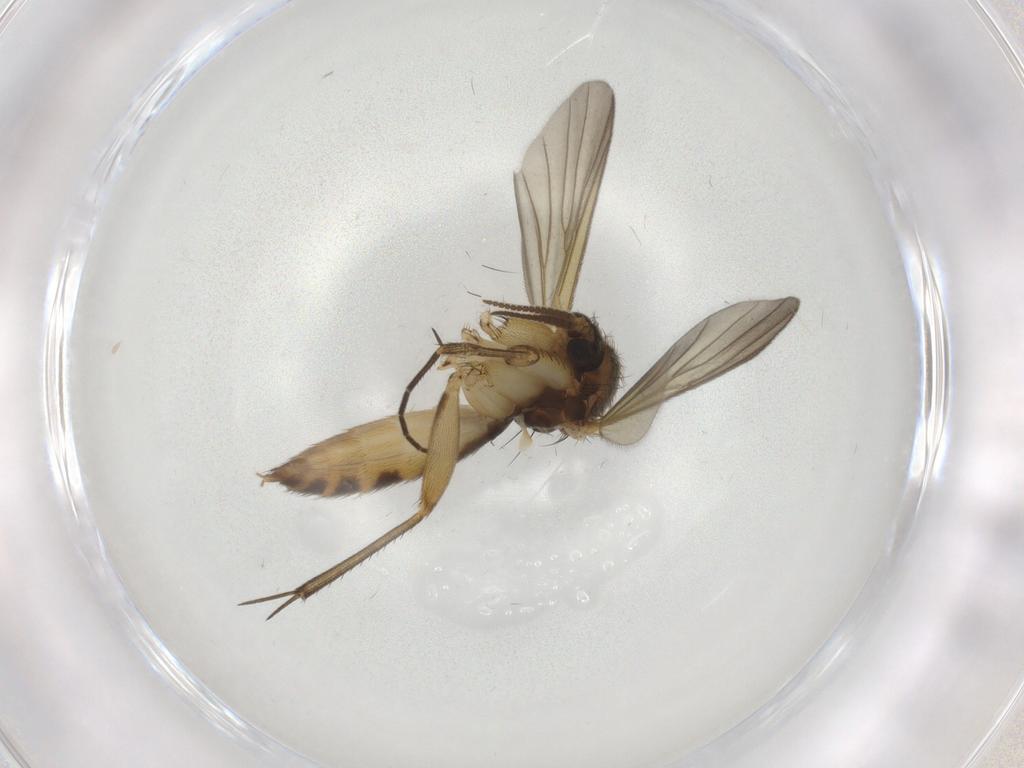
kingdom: Animalia
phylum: Arthropoda
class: Insecta
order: Diptera
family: Mycetophilidae
